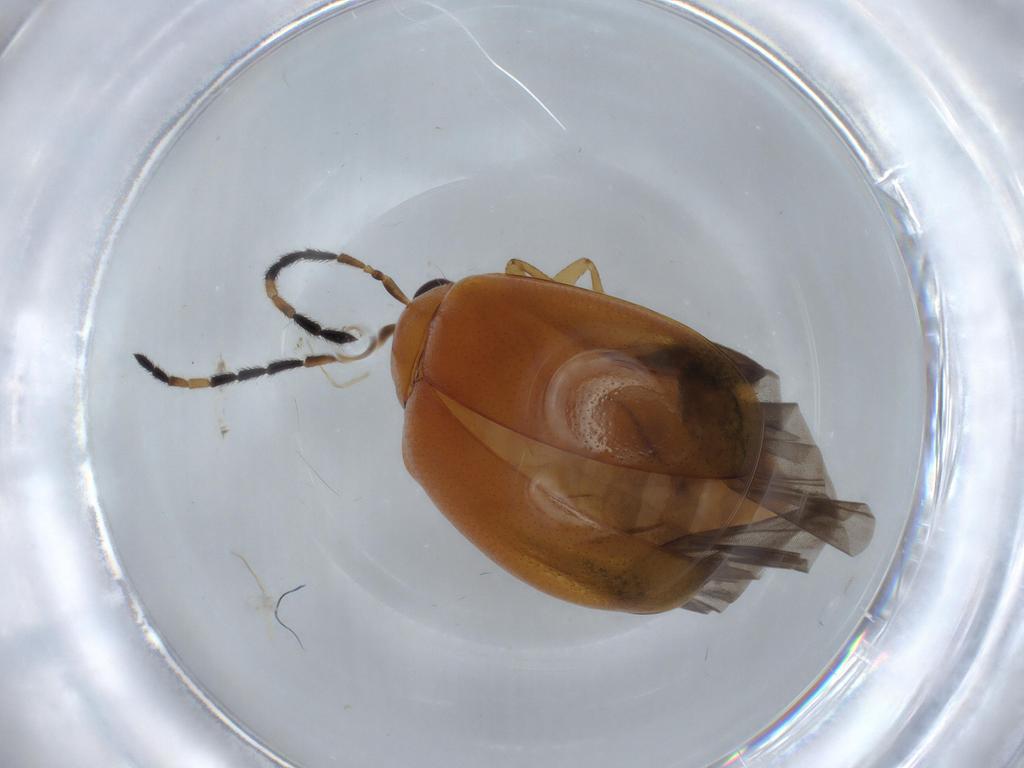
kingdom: Animalia
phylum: Arthropoda
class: Insecta
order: Coleoptera
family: Chrysomelidae
